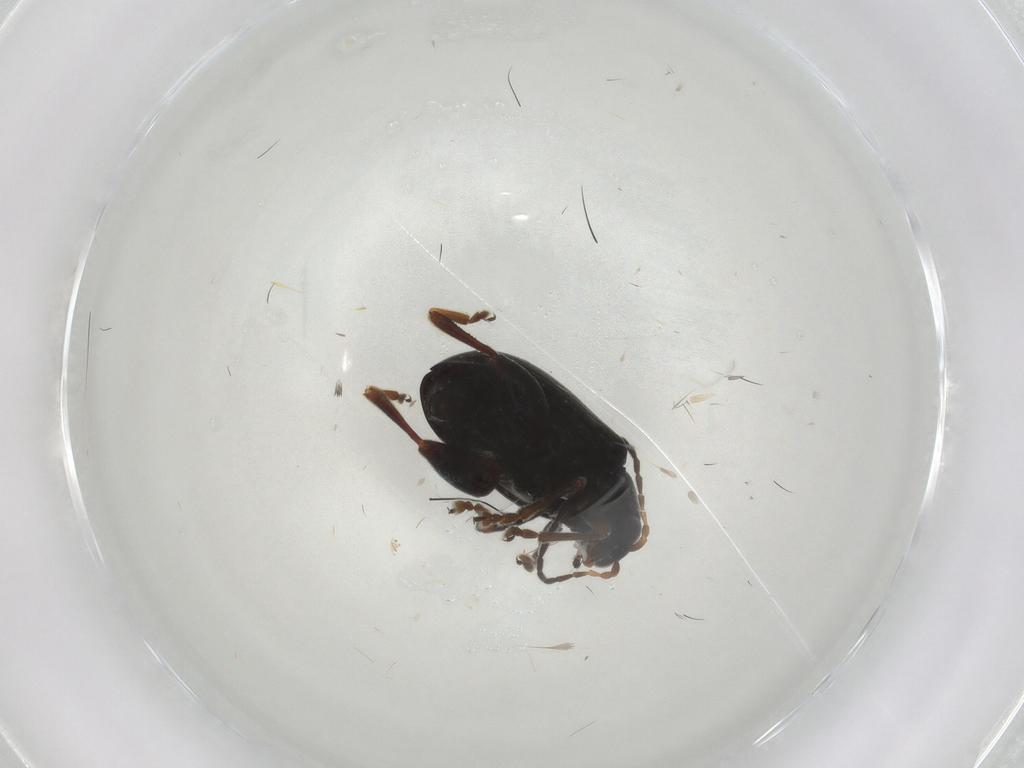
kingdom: Animalia
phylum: Arthropoda
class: Insecta
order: Coleoptera
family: Chrysomelidae
